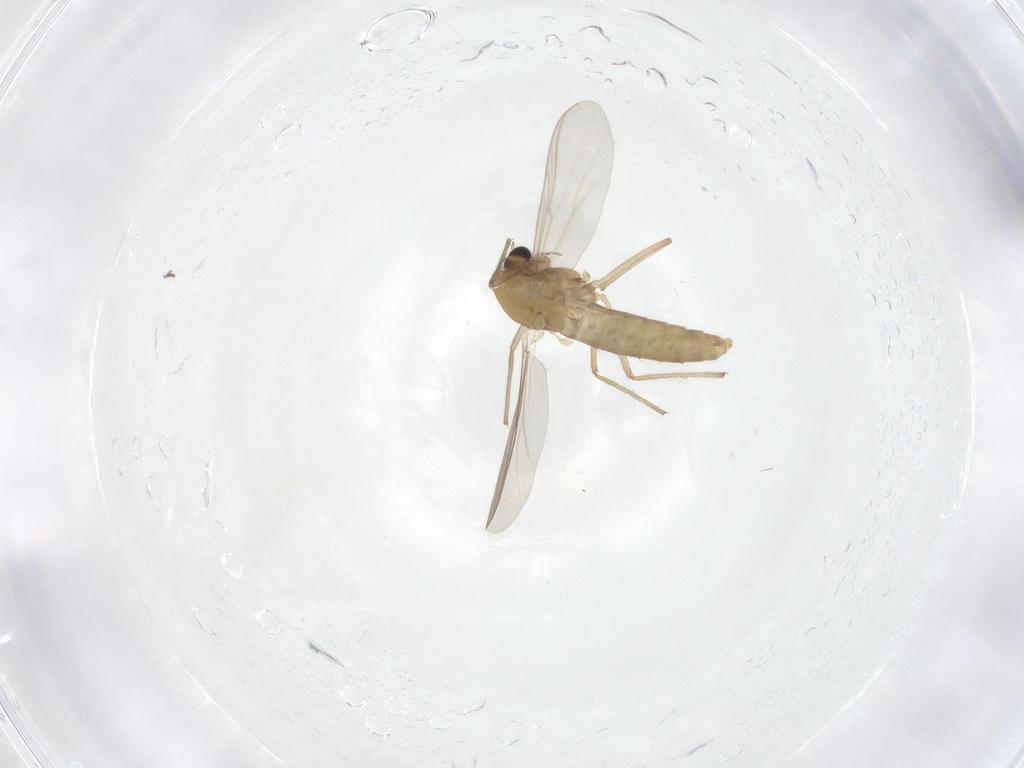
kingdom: Animalia
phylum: Arthropoda
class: Insecta
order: Diptera
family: Chironomidae
